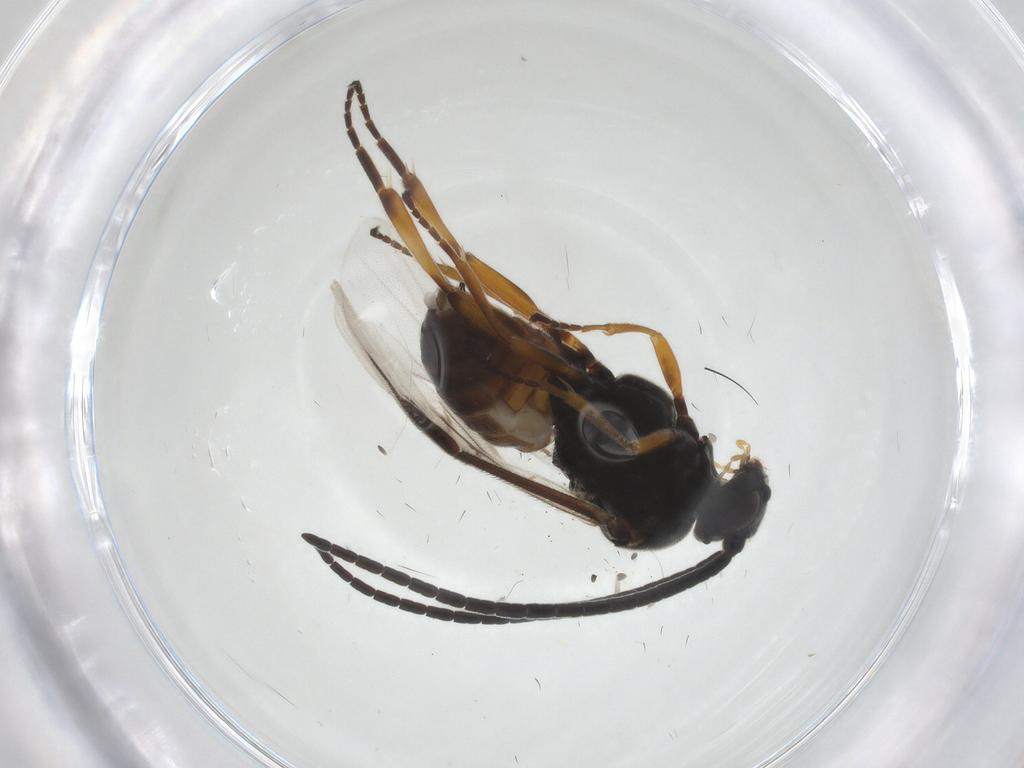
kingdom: Animalia
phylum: Arthropoda
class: Insecta
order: Hymenoptera
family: Braconidae
